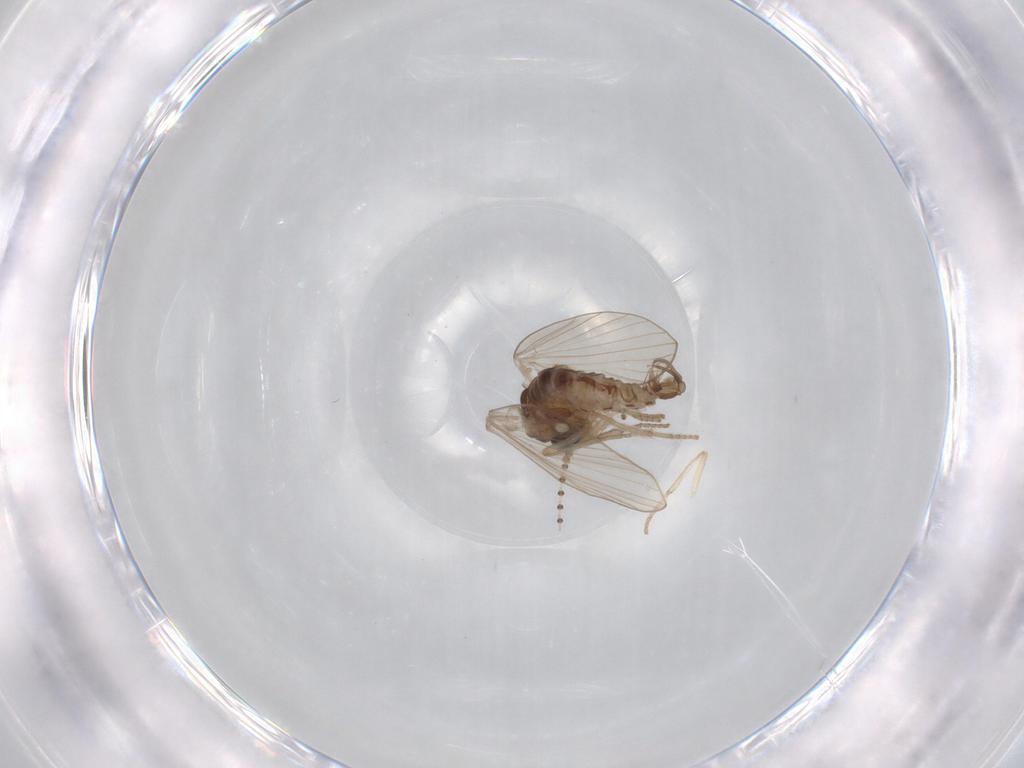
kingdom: Animalia
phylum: Arthropoda
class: Insecta
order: Diptera
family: Psychodidae
